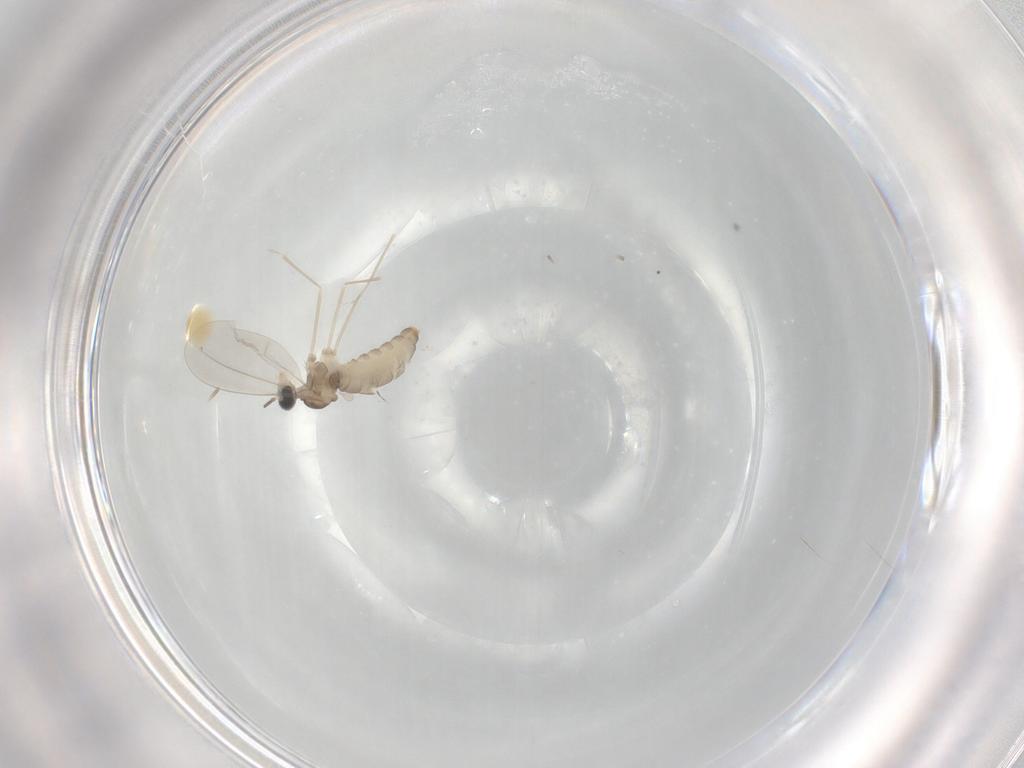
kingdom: Animalia
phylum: Arthropoda
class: Insecta
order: Diptera
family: Cecidomyiidae
